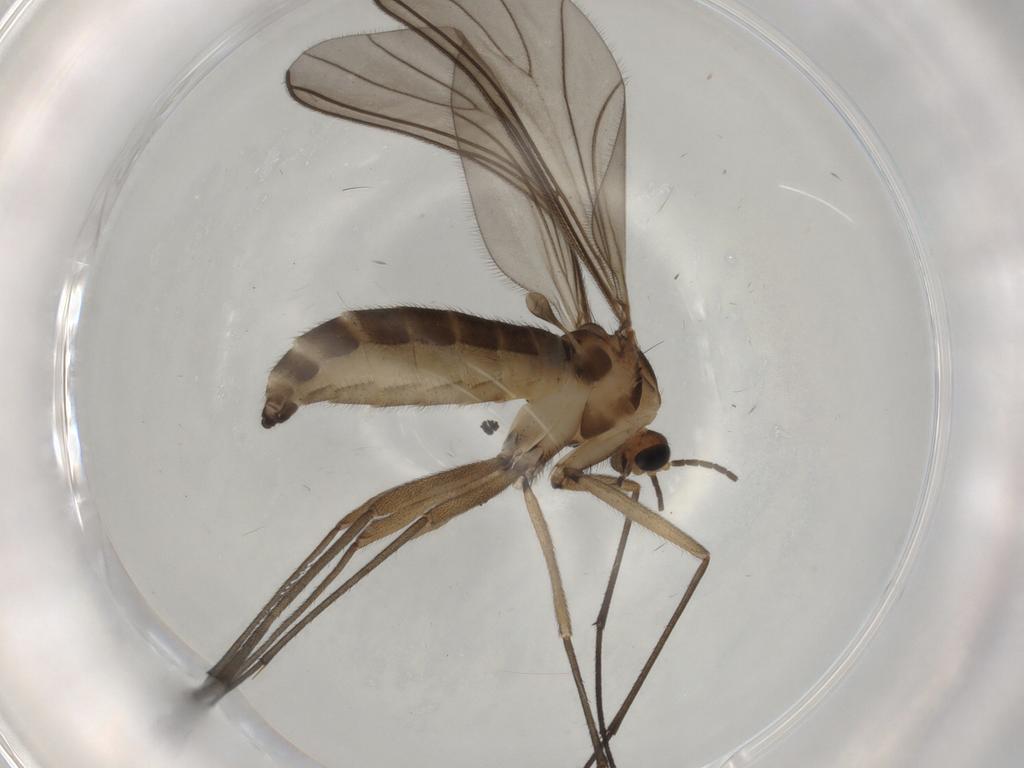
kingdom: Animalia
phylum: Arthropoda
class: Insecta
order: Diptera
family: Sciaridae
